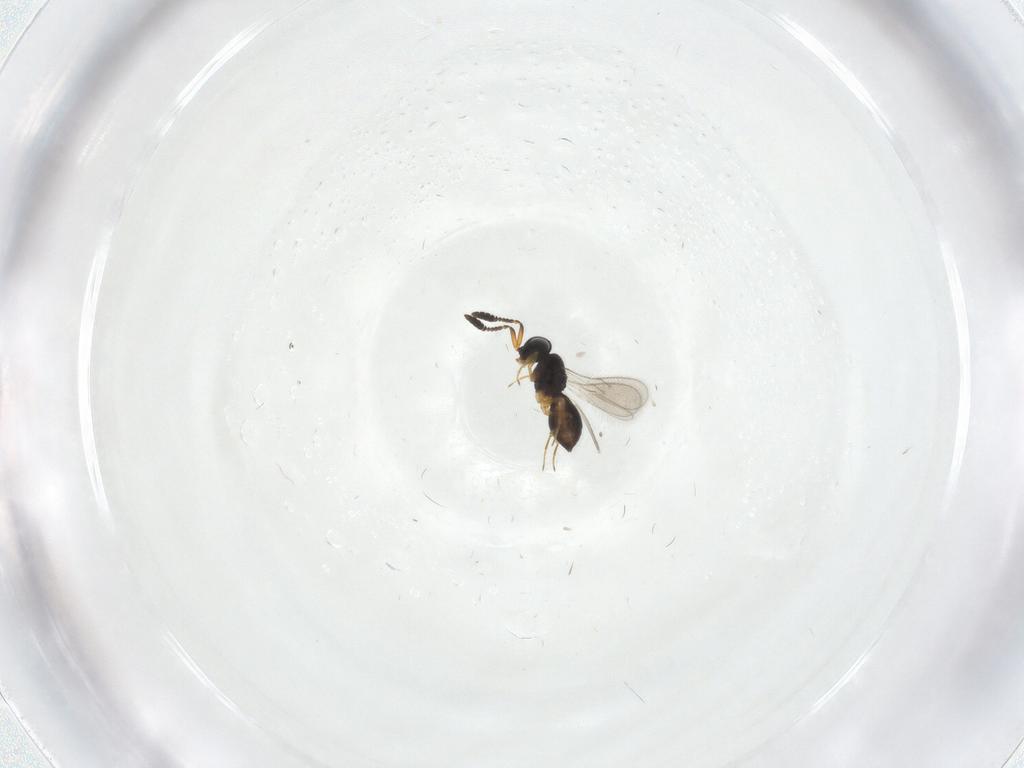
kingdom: Animalia
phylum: Arthropoda
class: Insecta
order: Hymenoptera
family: Scelionidae
